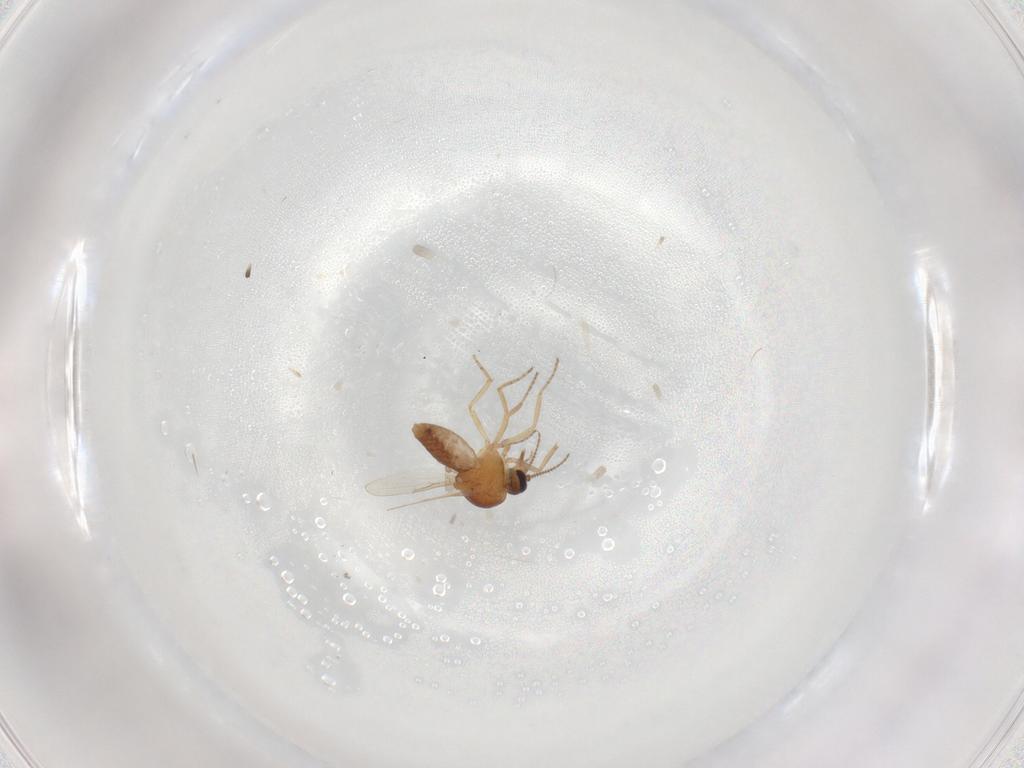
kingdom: Animalia
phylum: Arthropoda
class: Insecta
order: Diptera
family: Ceratopogonidae
